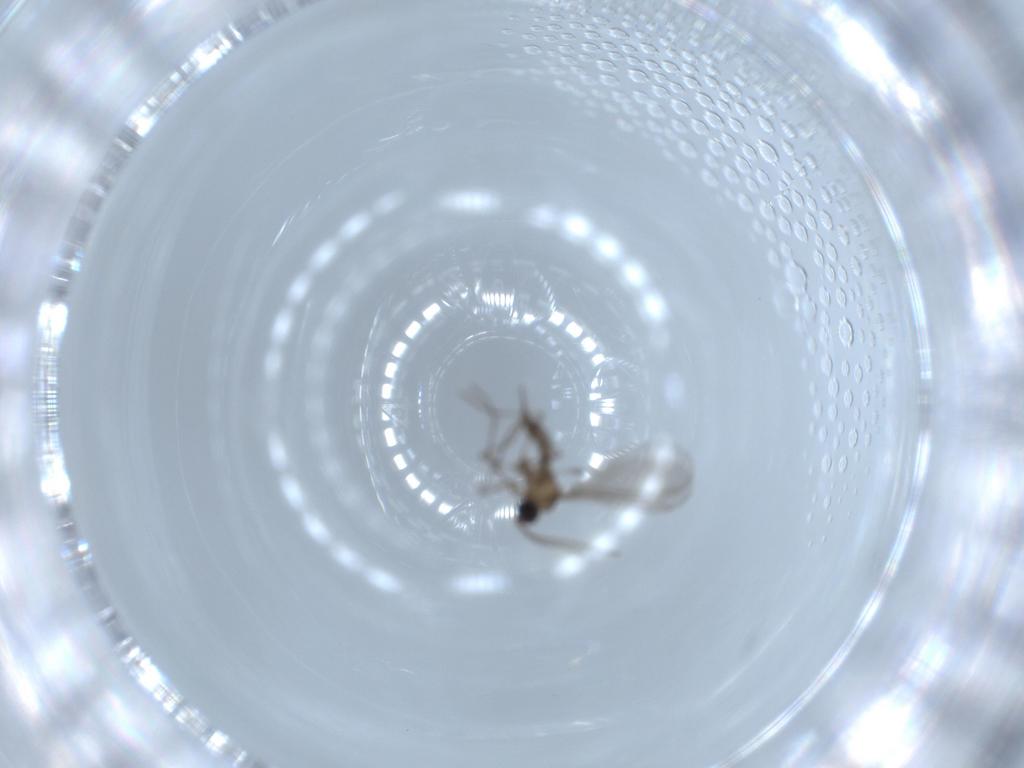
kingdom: Animalia
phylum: Arthropoda
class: Insecta
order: Diptera
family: Sciaridae
